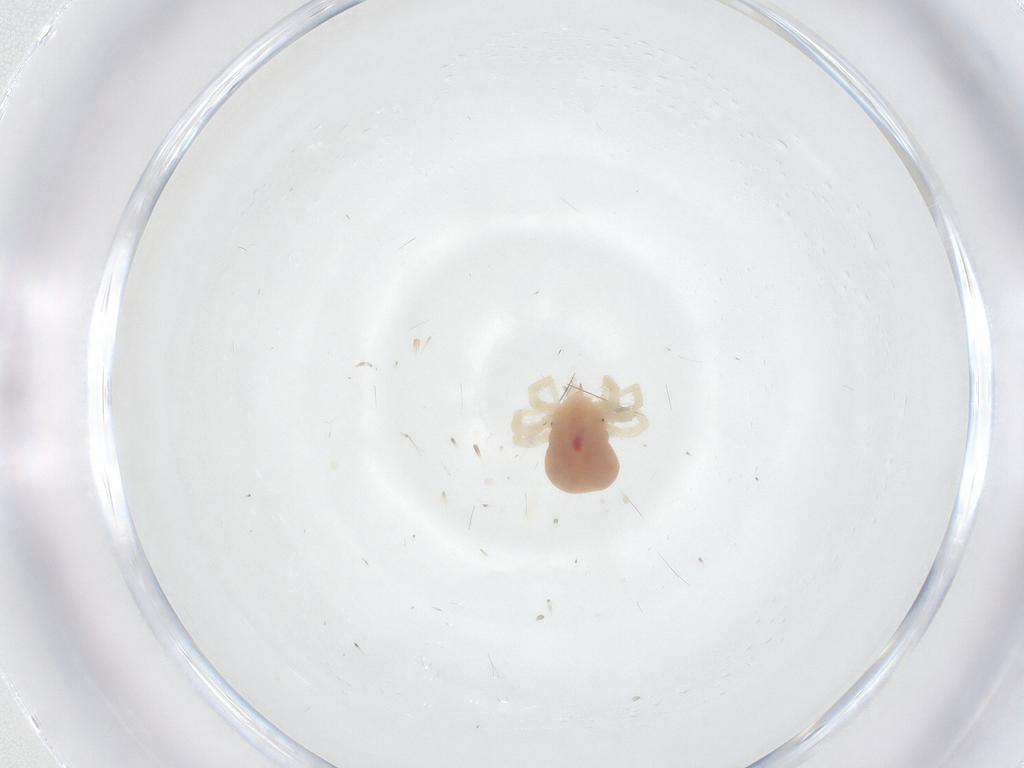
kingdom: Animalia
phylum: Arthropoda
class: Arachnida
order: Trombidiformes
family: Anystidae
